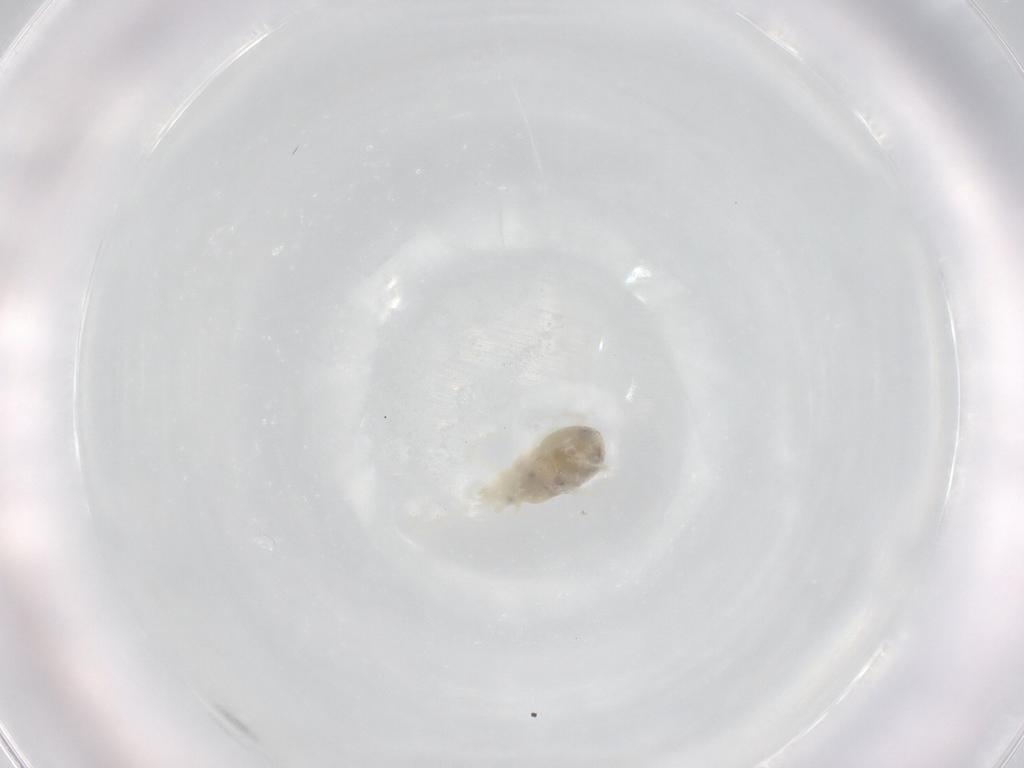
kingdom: Animalia
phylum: Arthropoda
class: Arachnida
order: Trombidiformes
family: Rhagidiidae
